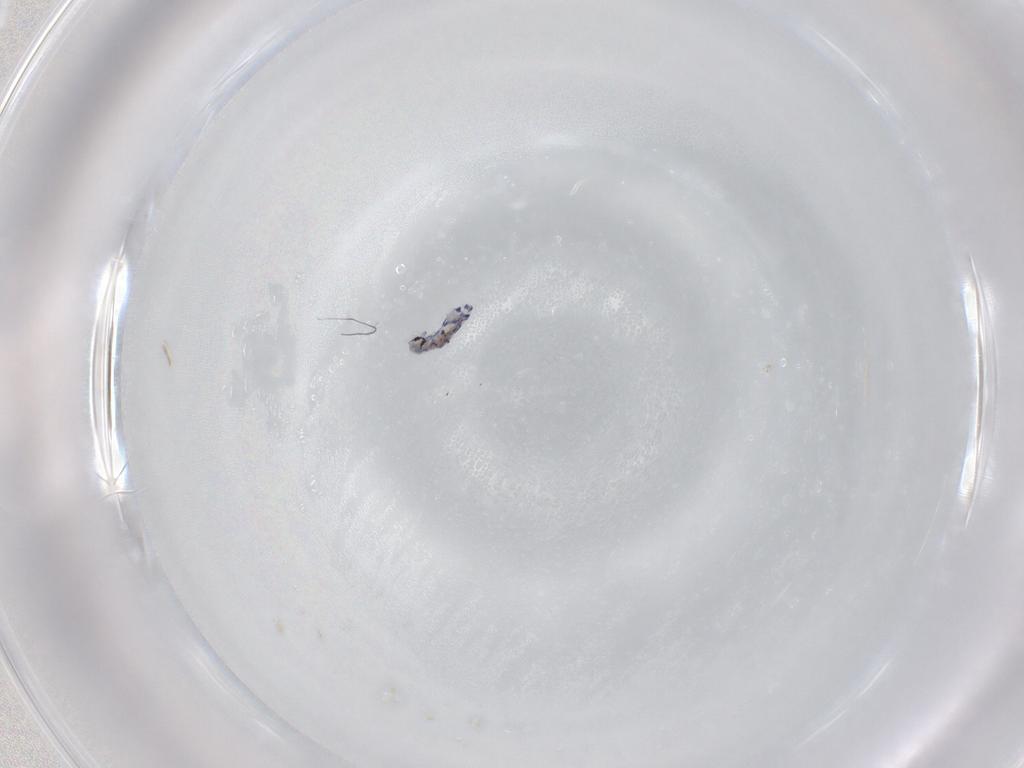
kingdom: Animalia
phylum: Arthropoda
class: Collembola
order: Entomobryomorpha
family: Entomobryidae
